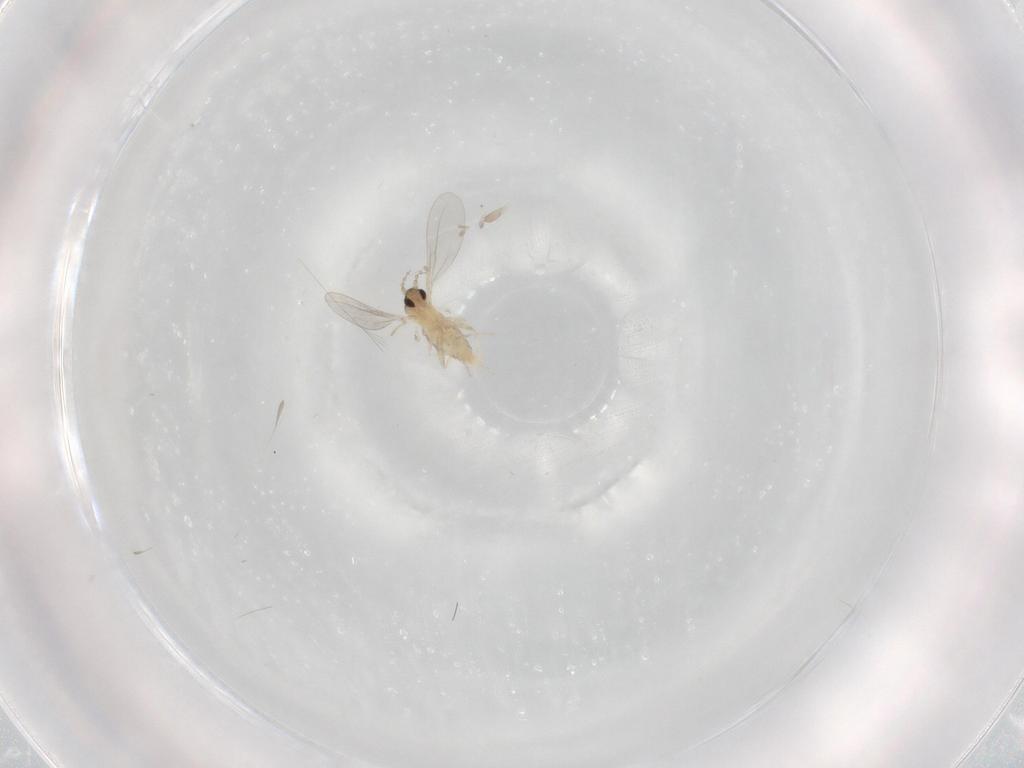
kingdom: Animalia
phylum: Arthropoda
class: Insecta
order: Diptera
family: Cecidomyiidae
